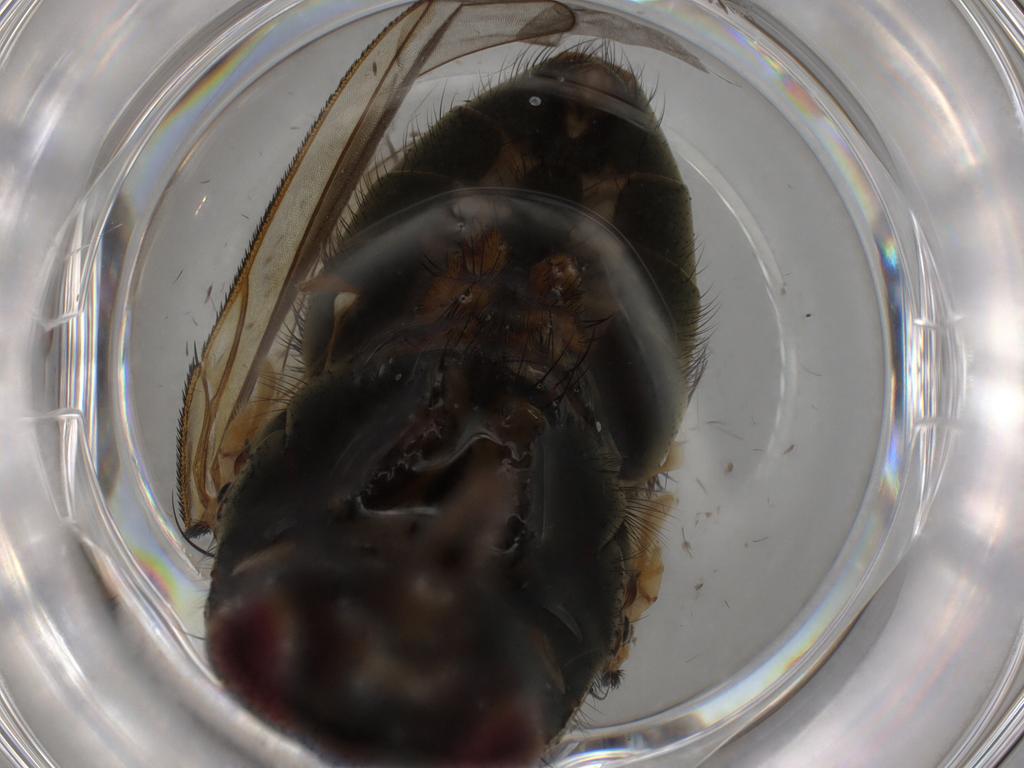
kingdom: Animalia
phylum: Arthropoda
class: Insecta
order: Diptera
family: Muscidae
